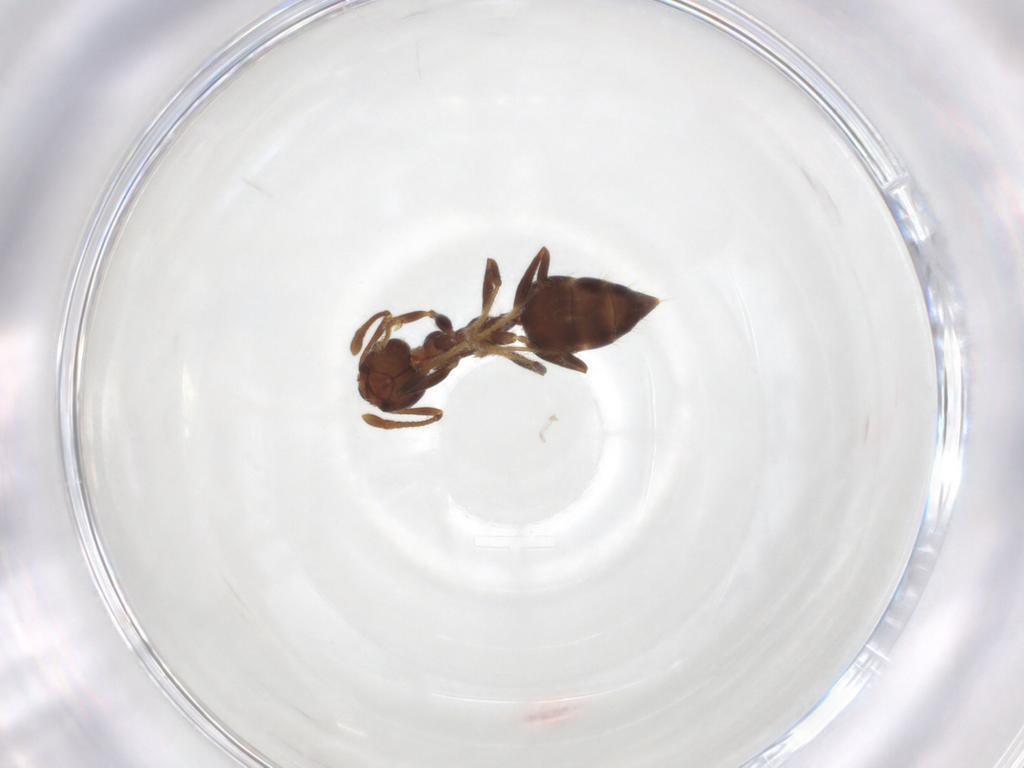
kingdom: Animalia
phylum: Arthropoda
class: Insecta
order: Hymenoptera
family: Formicidae
